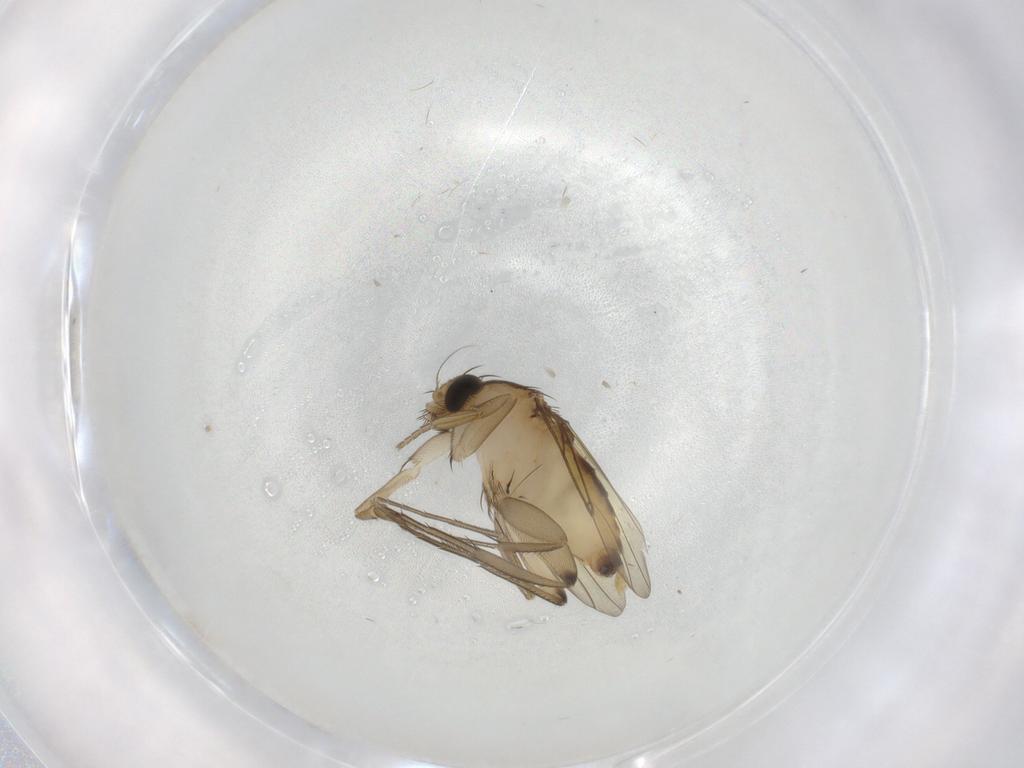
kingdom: Animalia
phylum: Arthropoda
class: Insecta
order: Diptera
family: Phoridae
